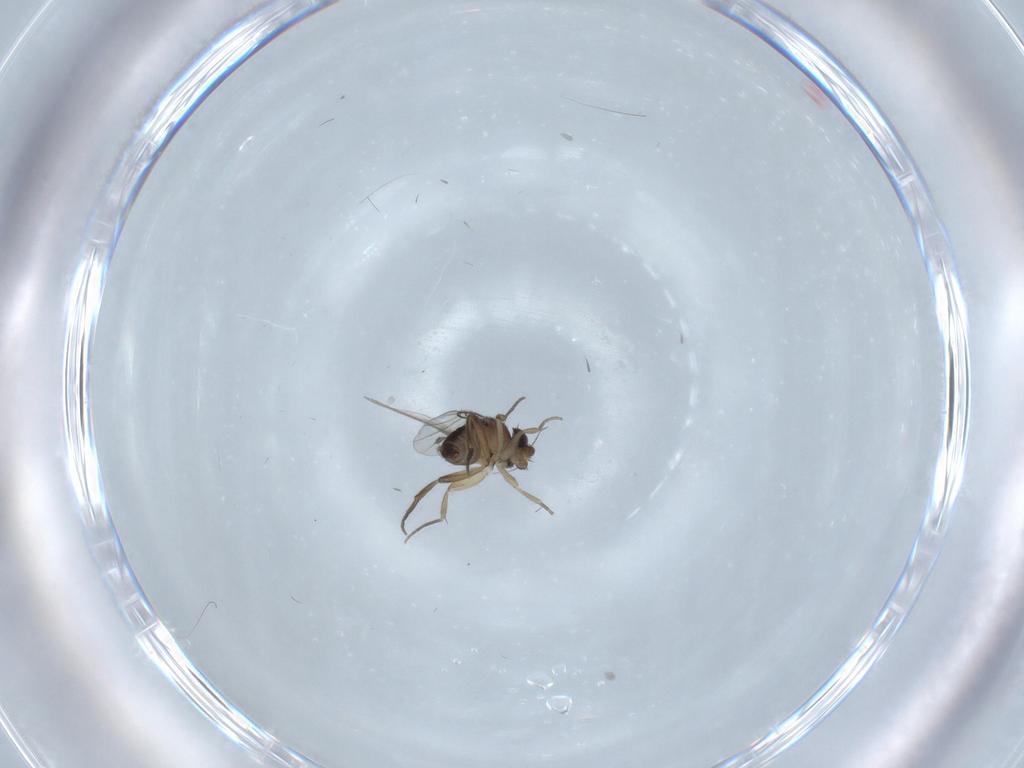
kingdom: Animalia
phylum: Arthropoda
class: Insecta
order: Diptera
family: Cecidomyiidae
